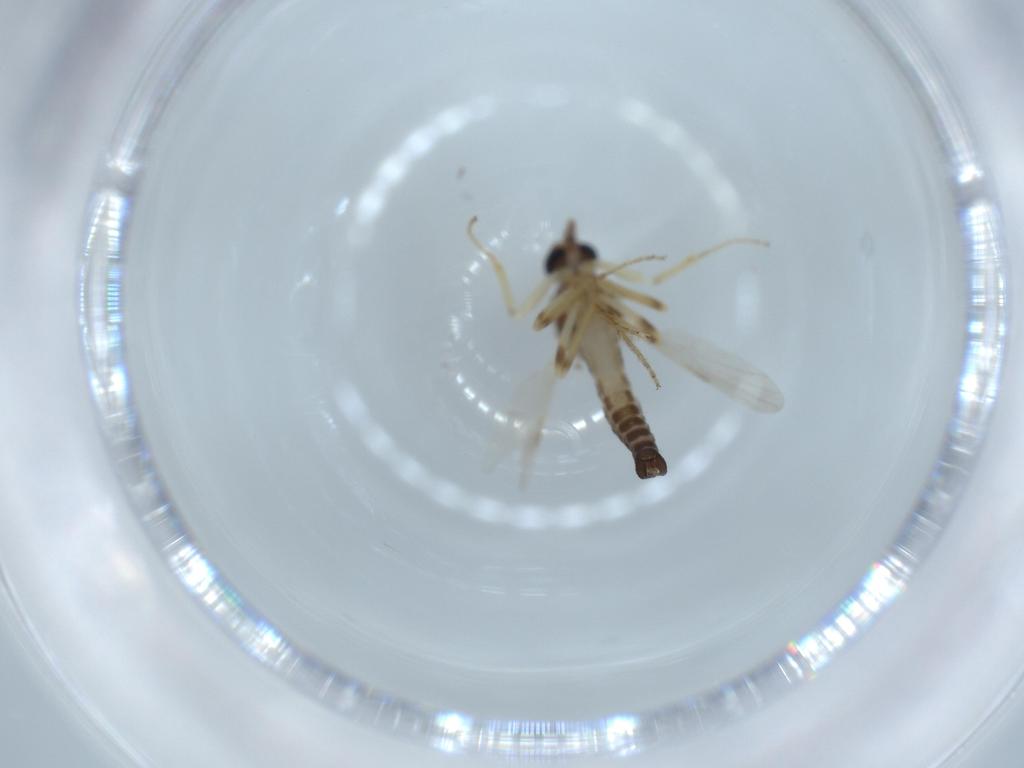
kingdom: Animalia
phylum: Arthropoda
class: Insecta
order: Diptera
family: Ceratopogonidae
